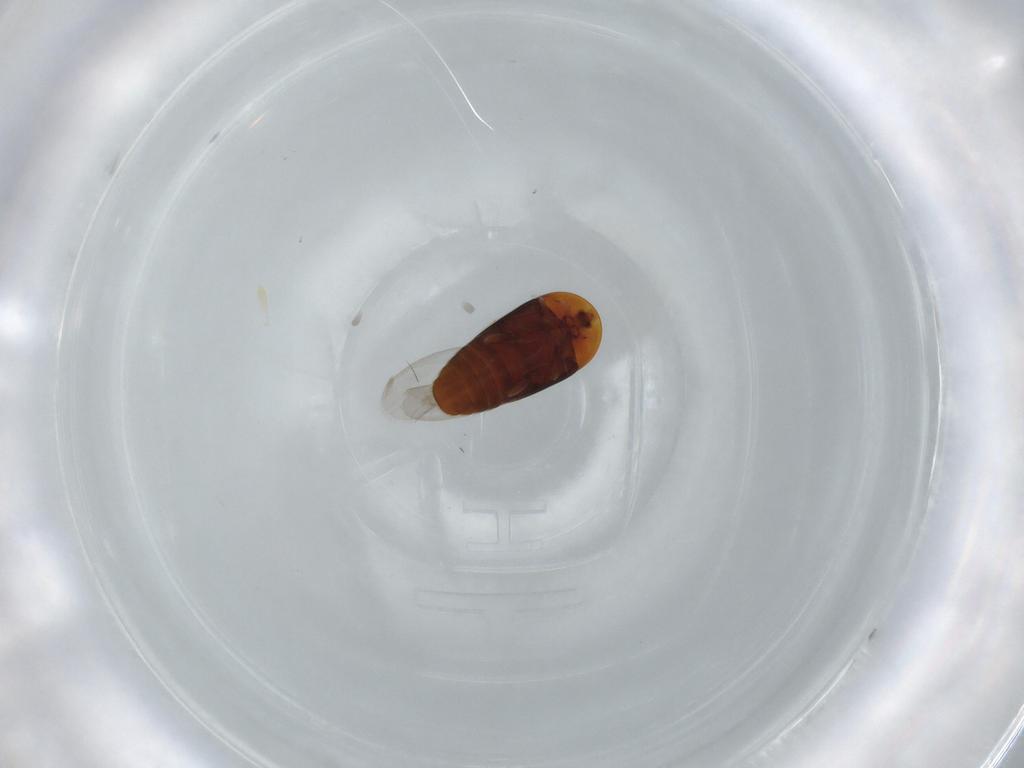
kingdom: Animalia
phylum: Arthropoda
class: Insecta
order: Coleoptera
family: Corylophidae
